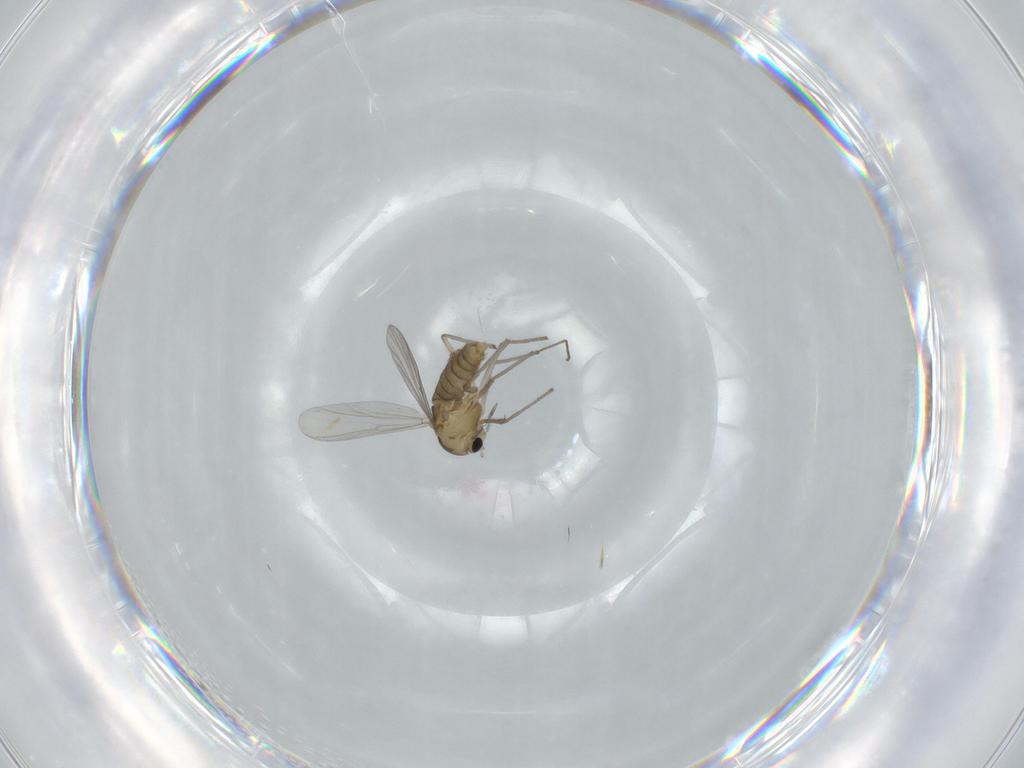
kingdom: Animalia
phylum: Arthropoda
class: Insecta
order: Diptera
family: Chironomidae
